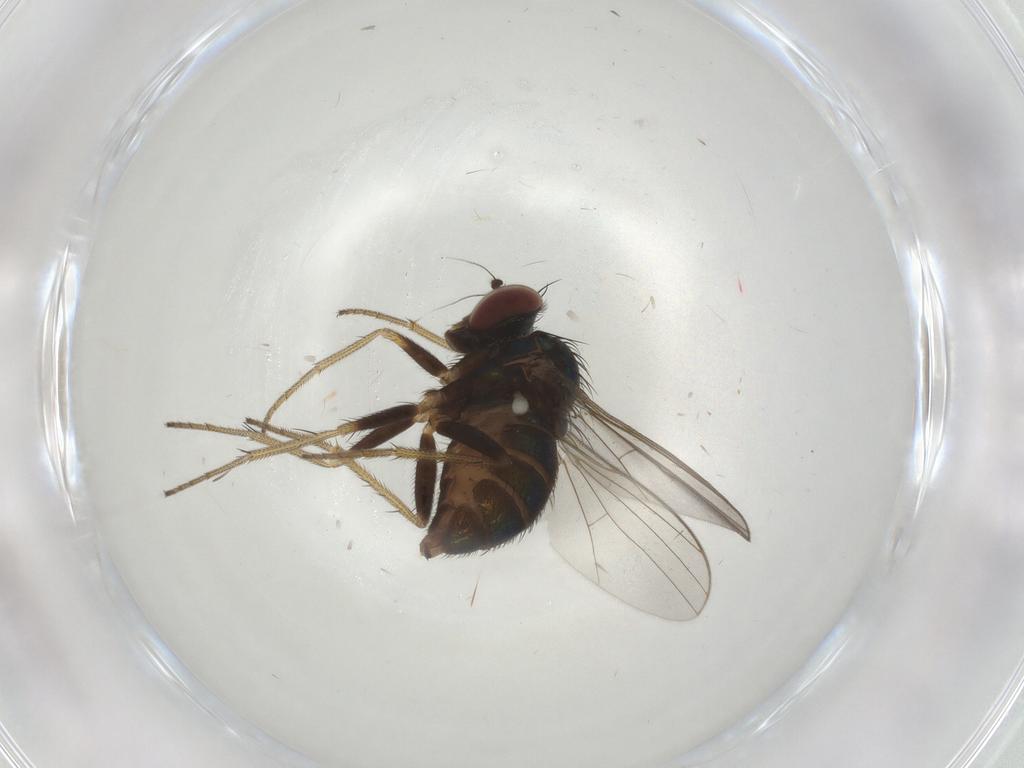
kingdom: Animalia
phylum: Arthropoda
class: Insecta
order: Diptera
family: Cecidomyiidae
